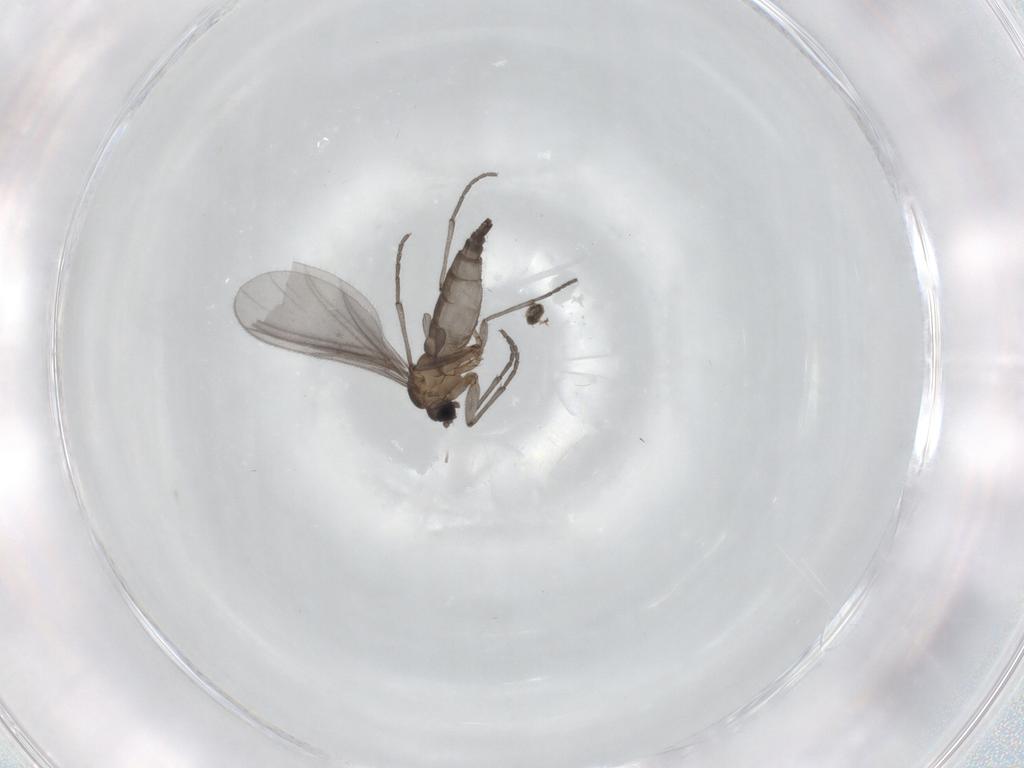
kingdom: Animalia
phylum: Arthropoda
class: Insecta
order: Diptera
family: Sciaridae
